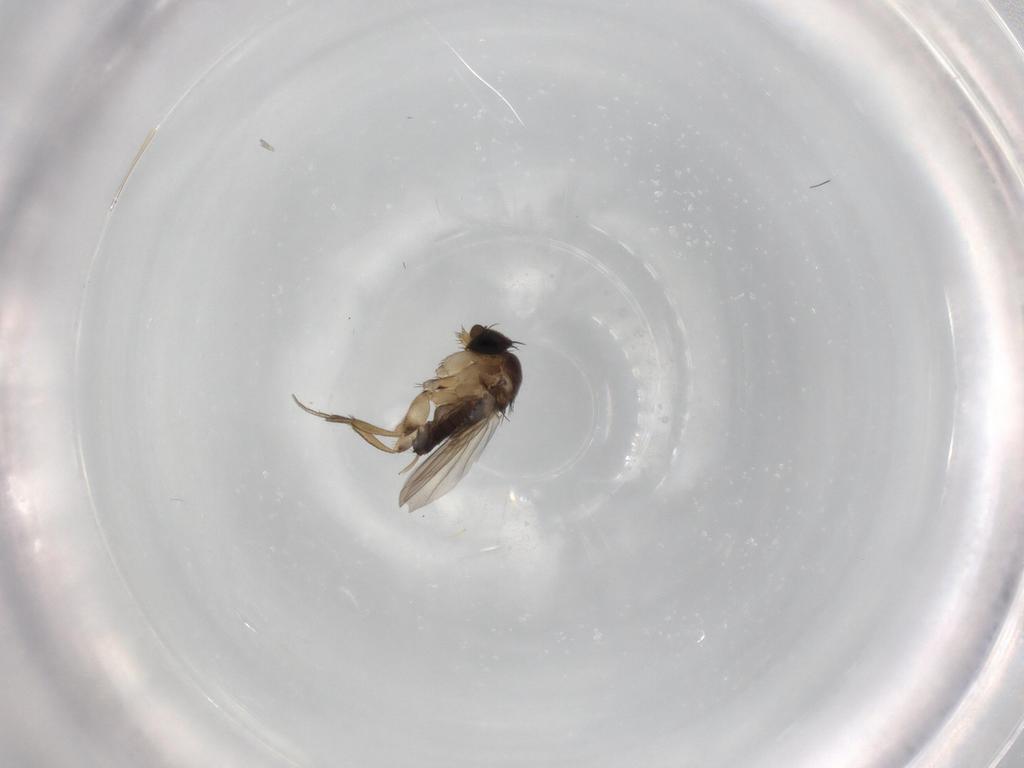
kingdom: Animalia
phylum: Arthropoda
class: Insecta
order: Diptera
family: Phoridae
